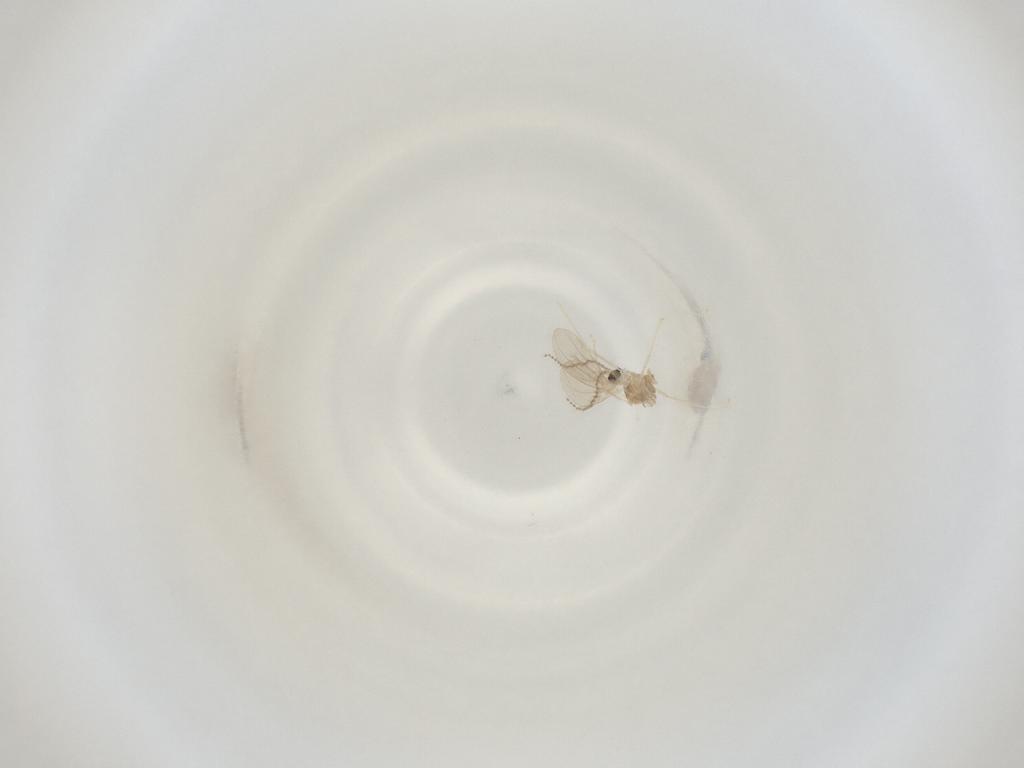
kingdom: Animalia
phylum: Arthropoda
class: Insecta
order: Diptera
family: Cecidomyiidae
